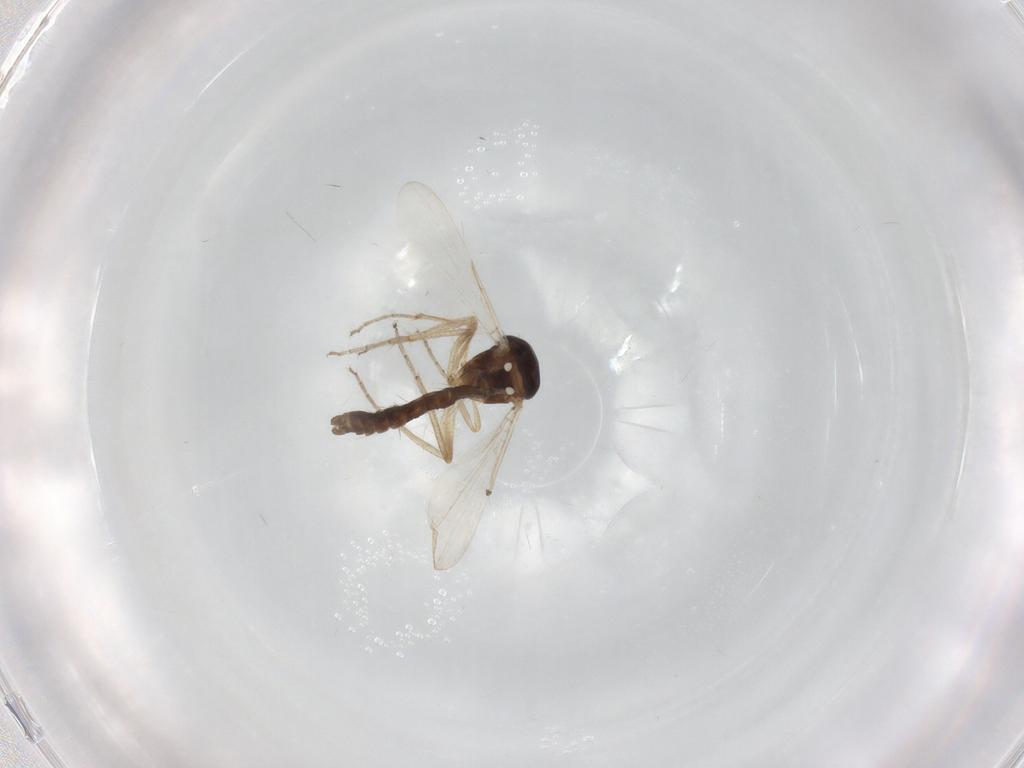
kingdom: Animalia
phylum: Arthropoda
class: Insecta
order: Diptera
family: Ceratopogonidae
